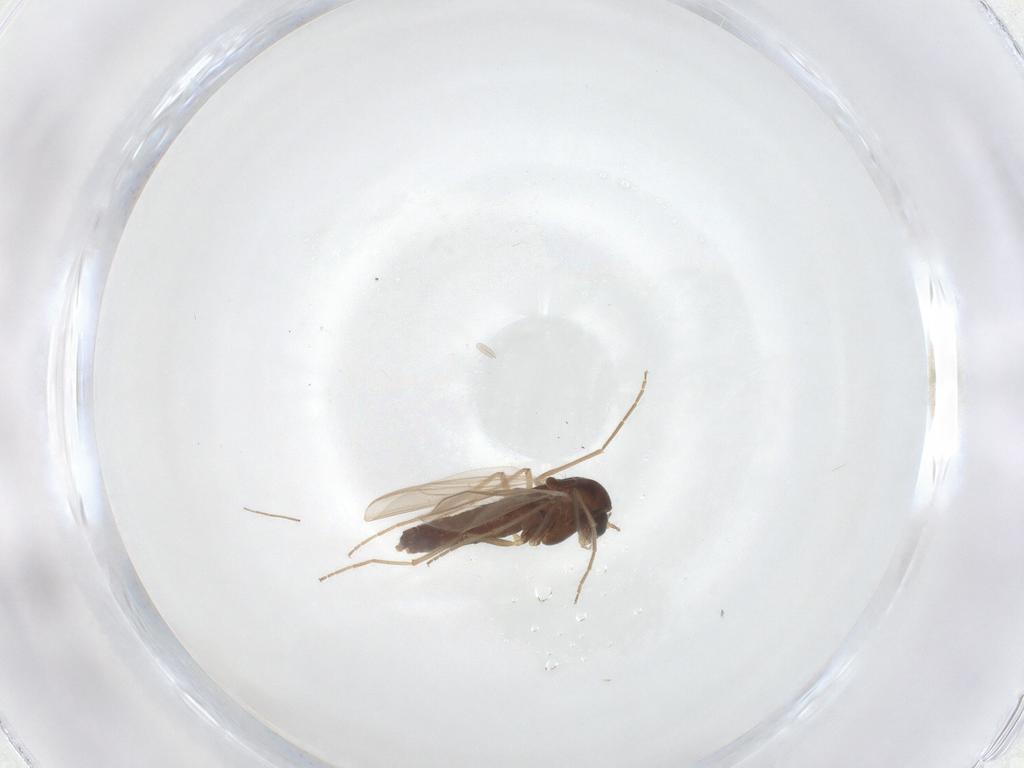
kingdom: Animalia
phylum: Arthropoda
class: Insecta
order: Diptera
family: Chironomidae
